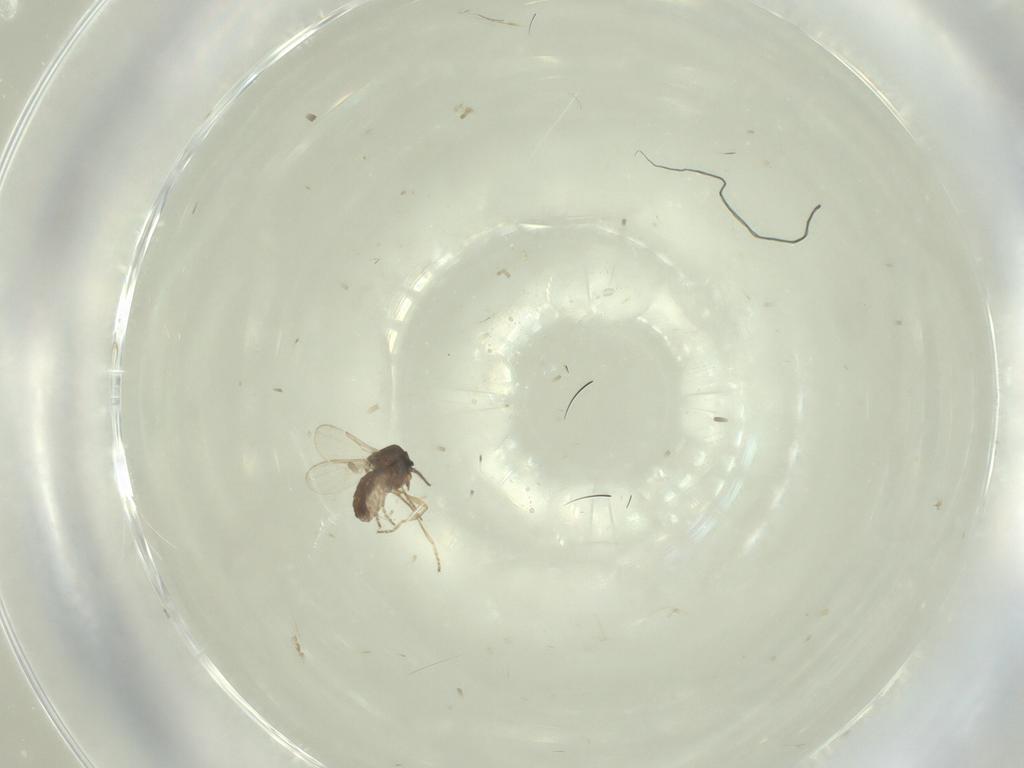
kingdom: Animalia
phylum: Arthropoda
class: Insecta
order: Diptera
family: Ceratopogonidae
